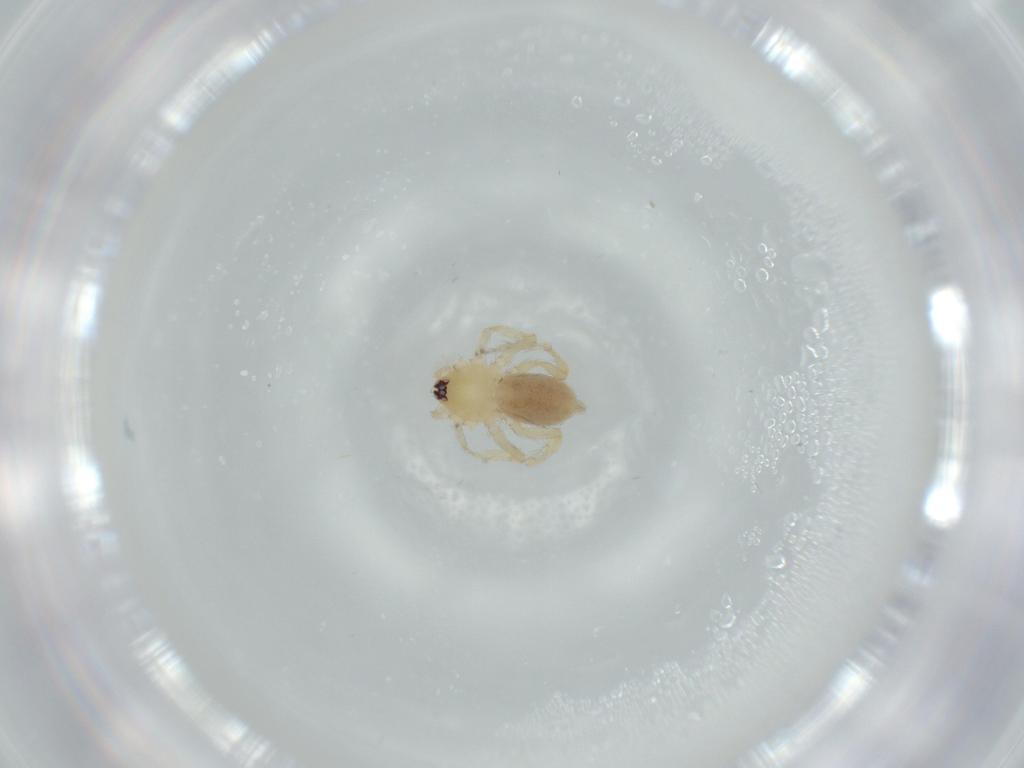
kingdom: Animalia
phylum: Arthropoda
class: Arachnida
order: Araneae
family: Oonopidae
